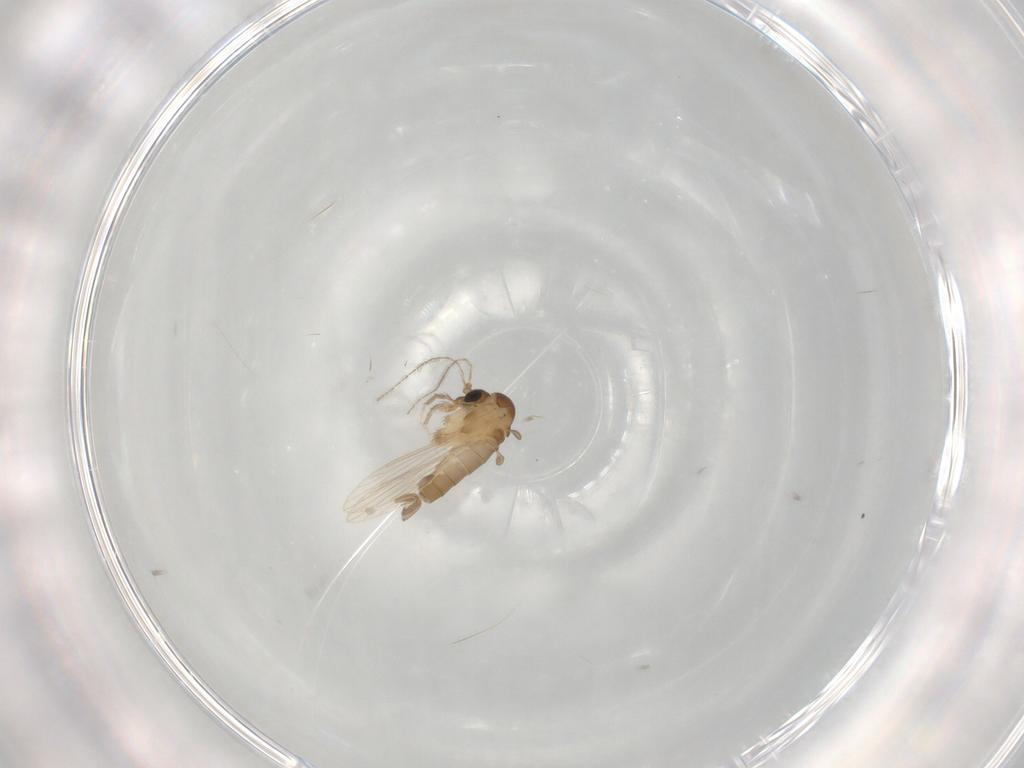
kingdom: Animalia
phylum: Arthropoda
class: Insecta
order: Diptera
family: Psychodidae
